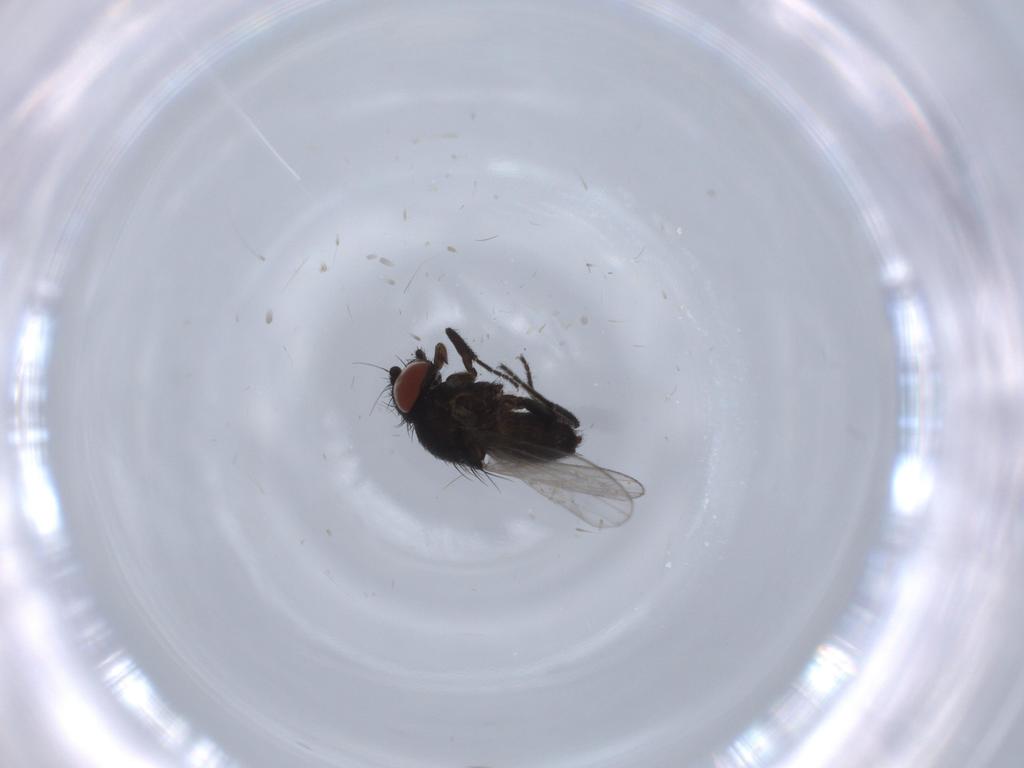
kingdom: Animalia
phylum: Arthropoda
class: Insecta
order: Diptera
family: Milichiidae
